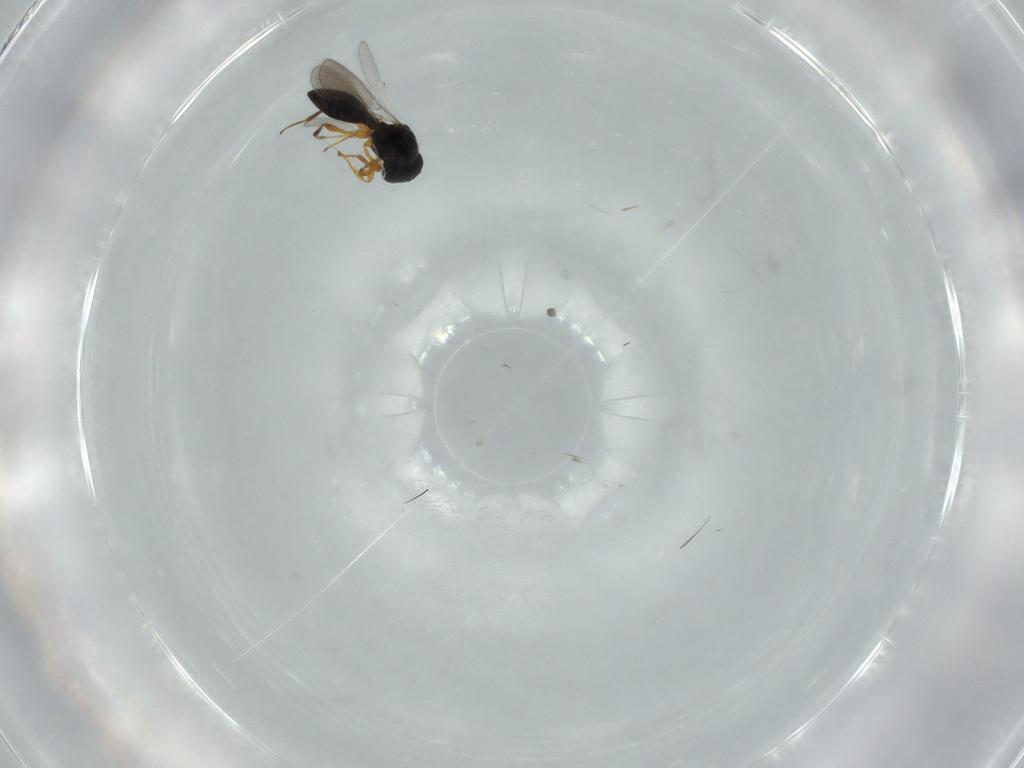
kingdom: Animalia
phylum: Arthropoda
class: Insecta
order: Hymenoptera
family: Platygastridae
